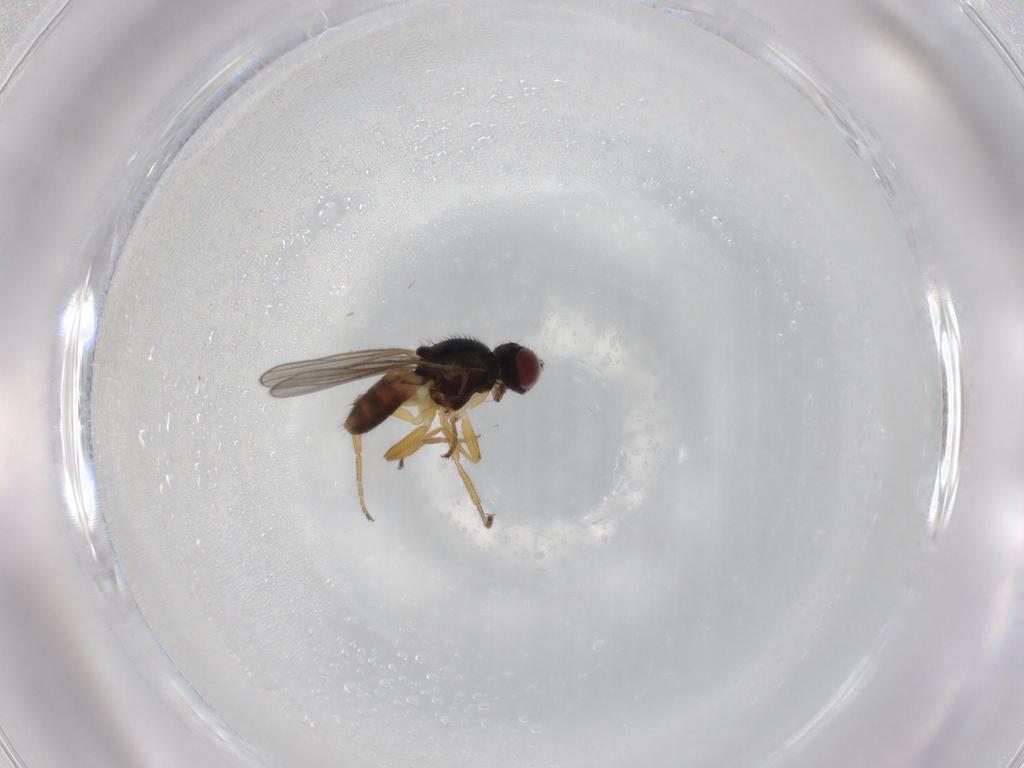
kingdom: Animalia
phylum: Arthropoda
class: Insecta
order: Diptera
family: Chloropidae
